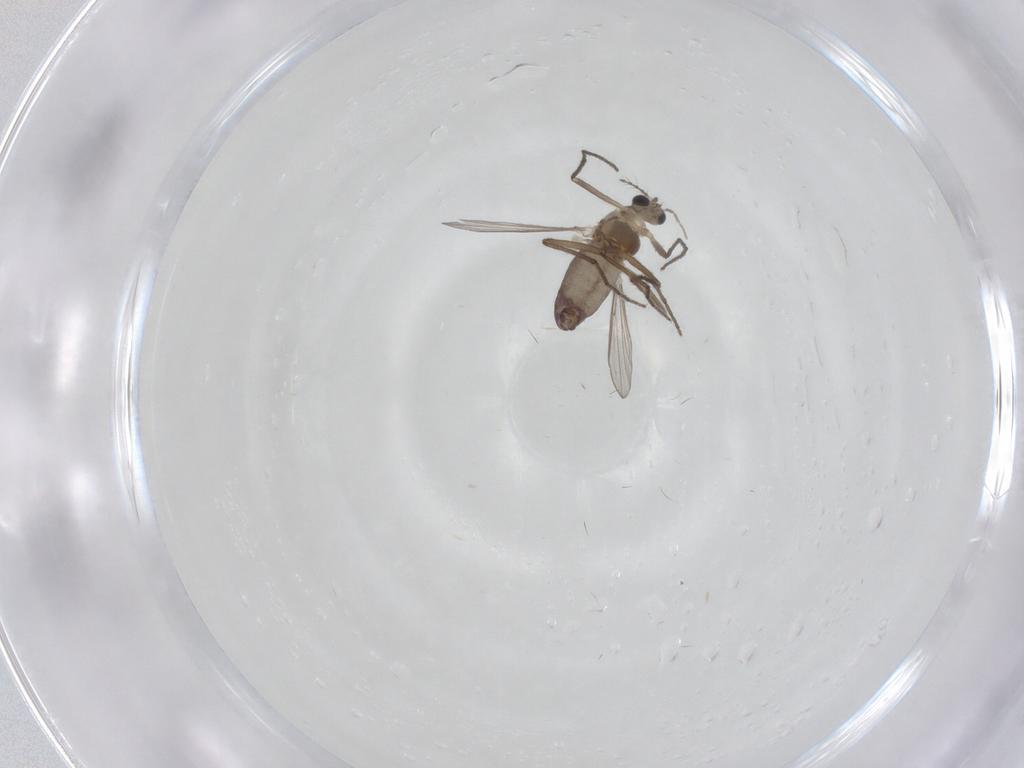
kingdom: Animalia
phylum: Arthropoda
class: Insecta
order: Diptera
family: Chironomidae
